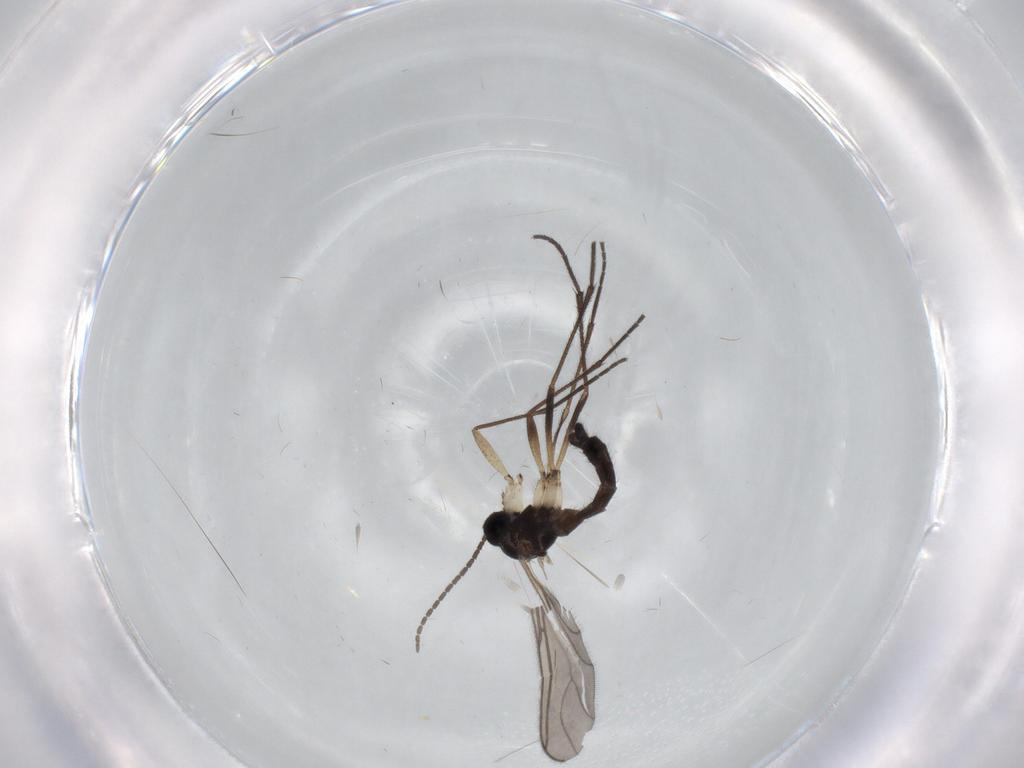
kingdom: Animalia
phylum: Arthropoda
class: Insecta
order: Diptera
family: Sciaridae
